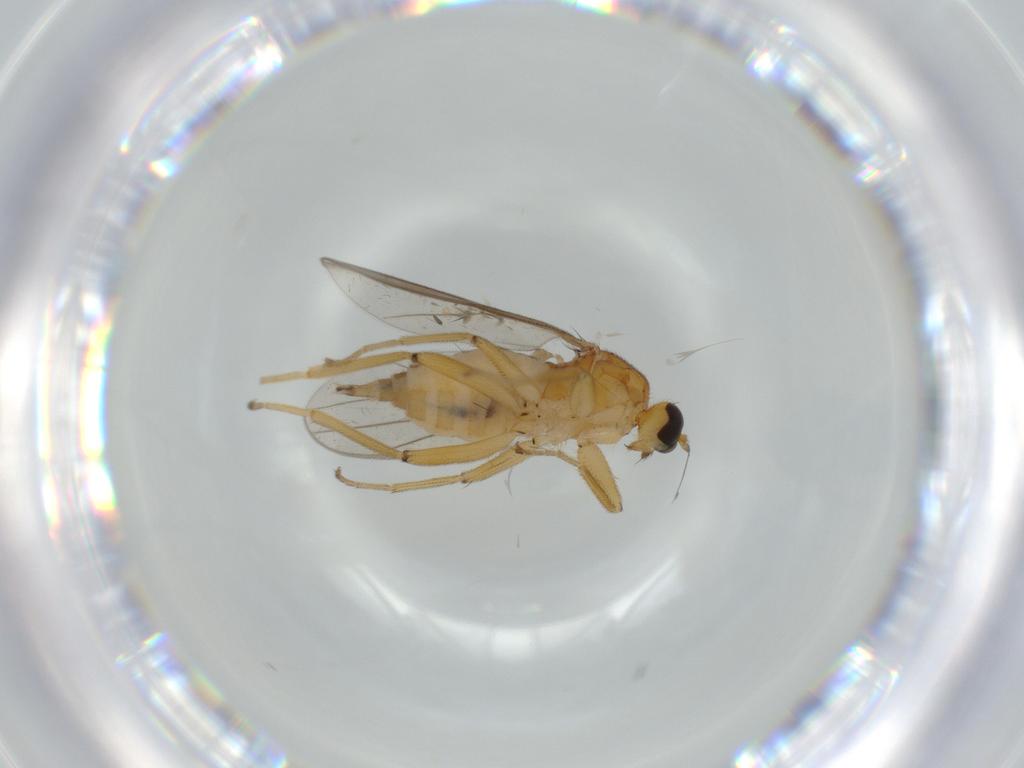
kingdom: Animalia
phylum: Arthropoda
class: Insecta
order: Diptera
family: Hybotidae
